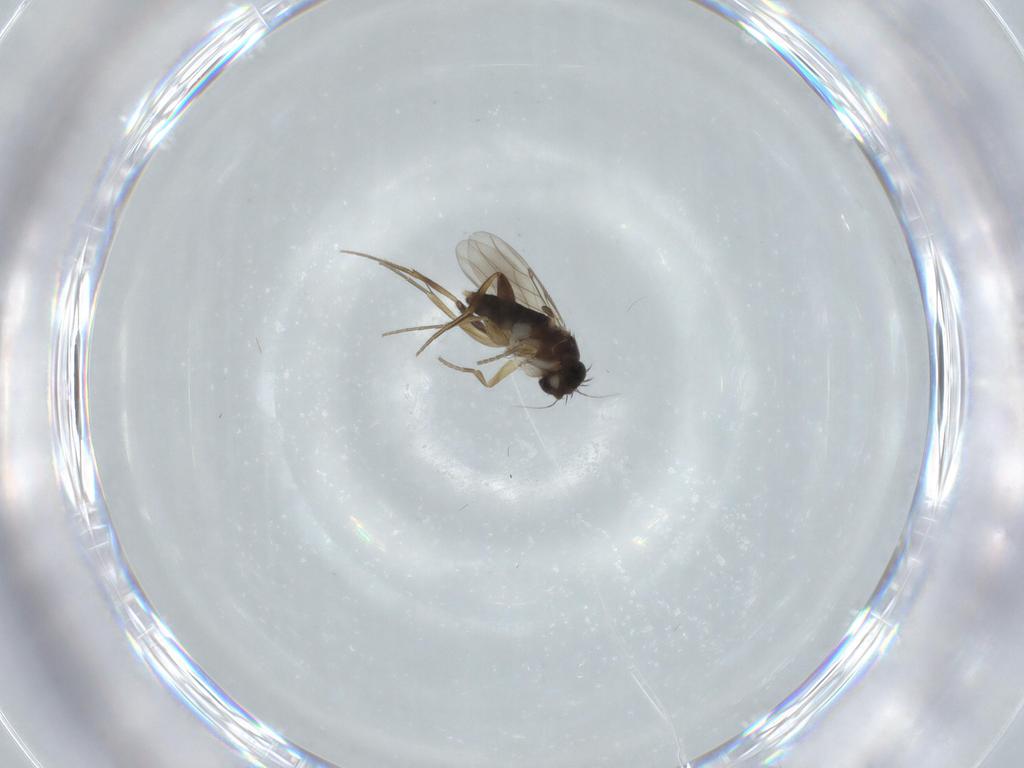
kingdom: Animalia
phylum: Arthropoda
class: Insecta
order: Diptera
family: Phoridae
